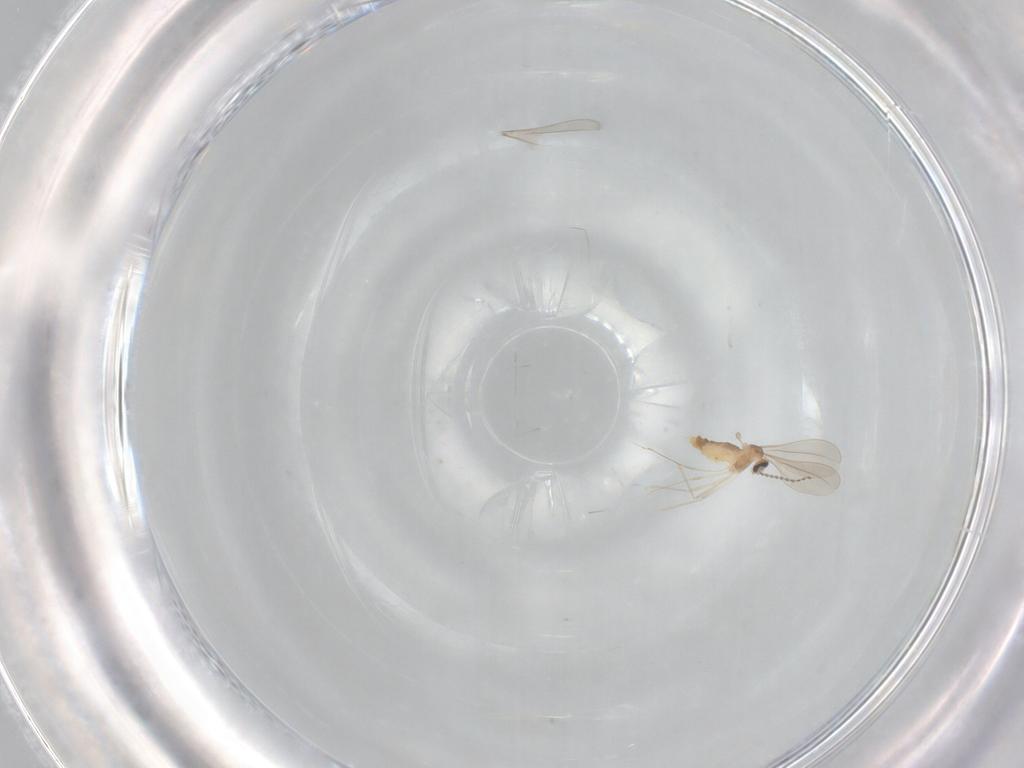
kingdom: Animalia
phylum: Arthropoda
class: Insecta
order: Diptera
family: Cecidomyiidae
